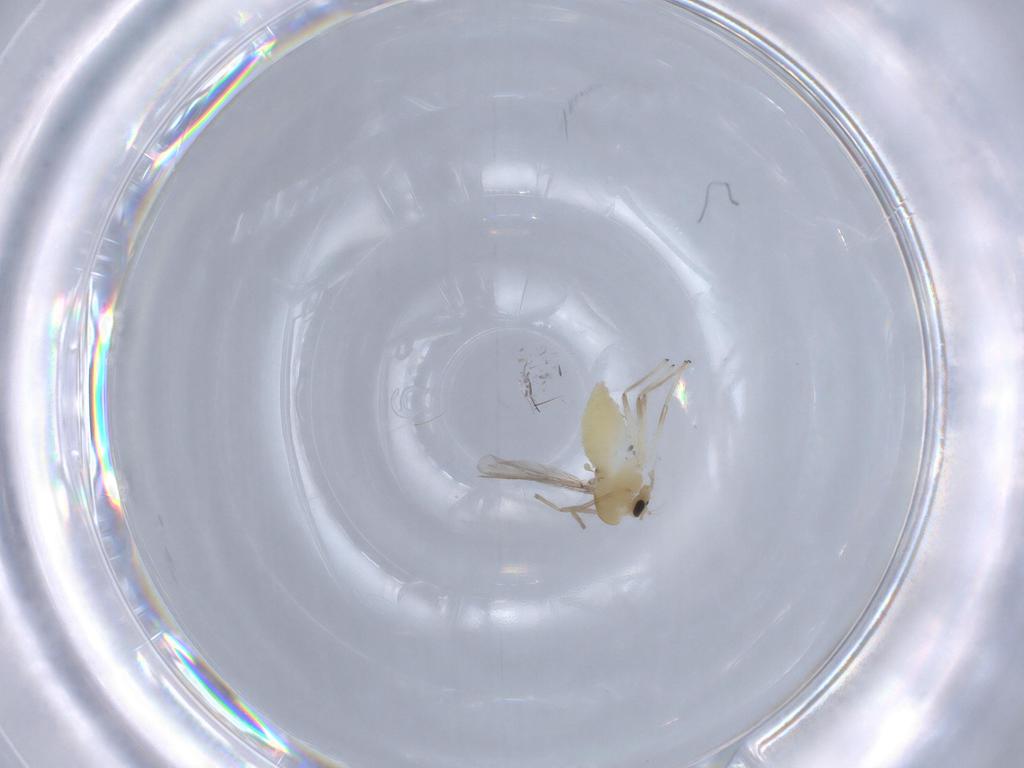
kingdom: Animalia
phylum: Arthropoda
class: Insecta
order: Diptera
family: Chironomidae
